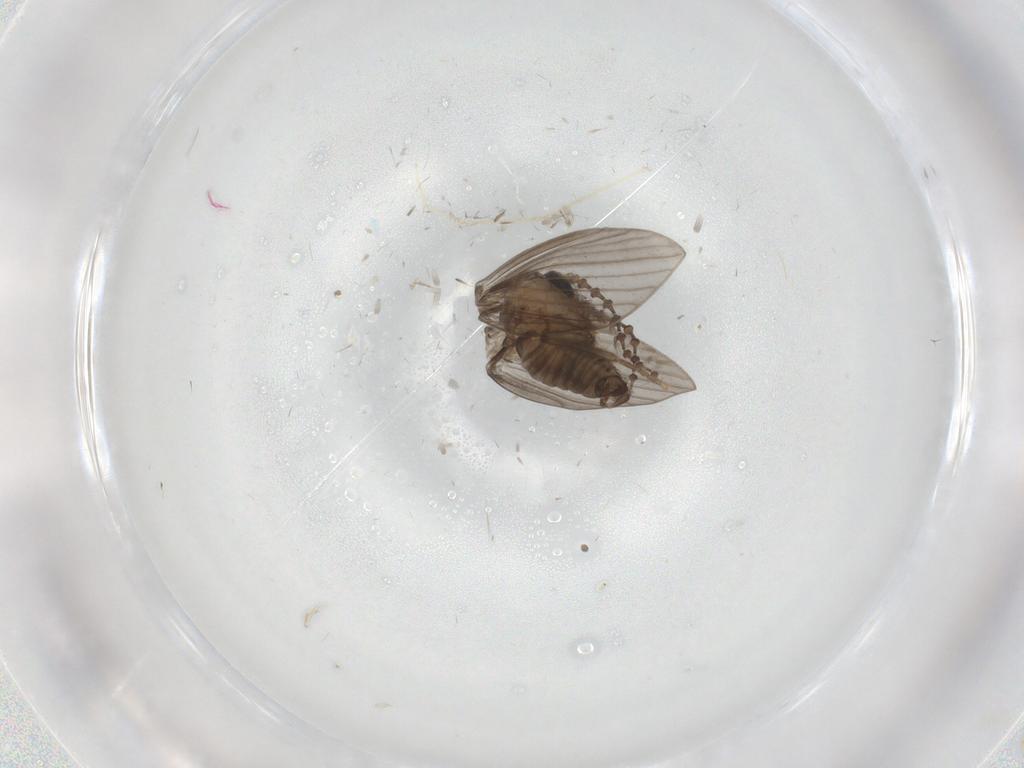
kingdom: Animalia
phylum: Arthropoda
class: Insecta
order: Diptera
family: Psychodidae
